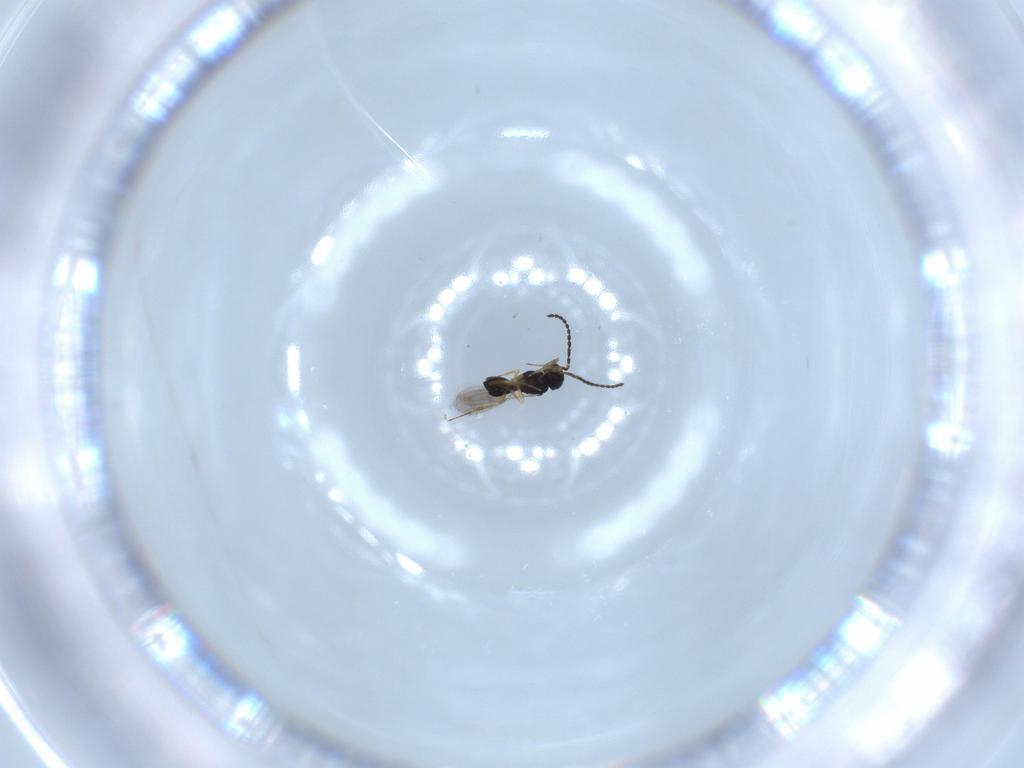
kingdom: Animalia
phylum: Arthropoda
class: Insecta
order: Hymenoptera
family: Scelionidae
